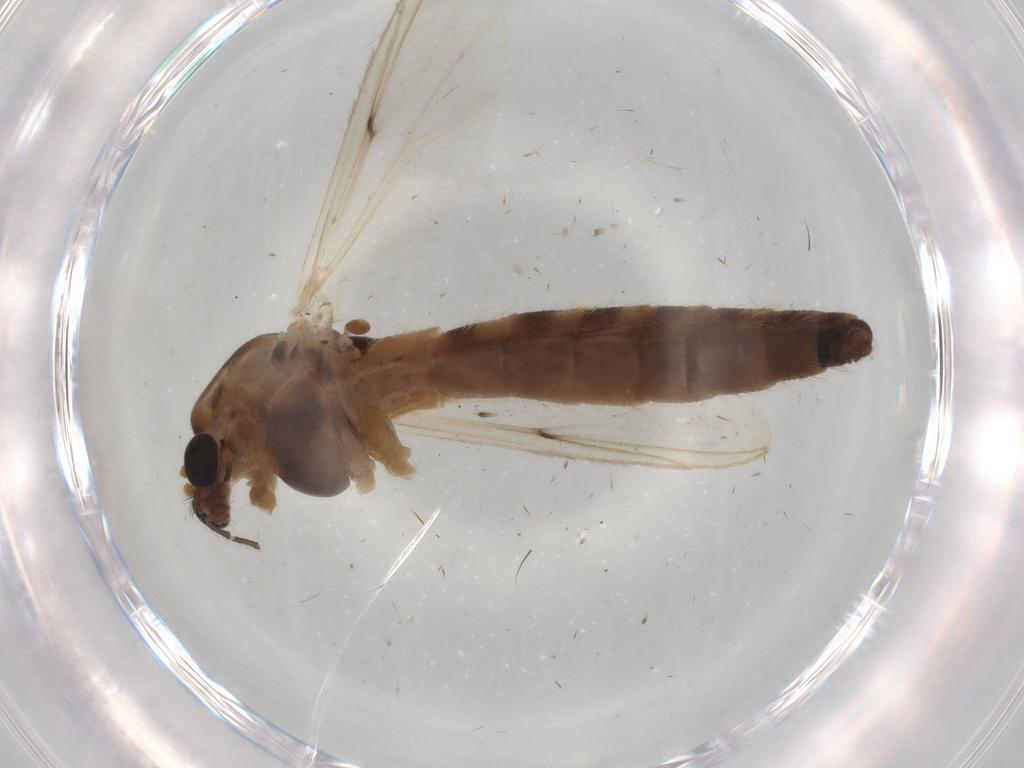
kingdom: Animalia
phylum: Arthropoda
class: Insecta
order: Diptera
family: Chironomidae
